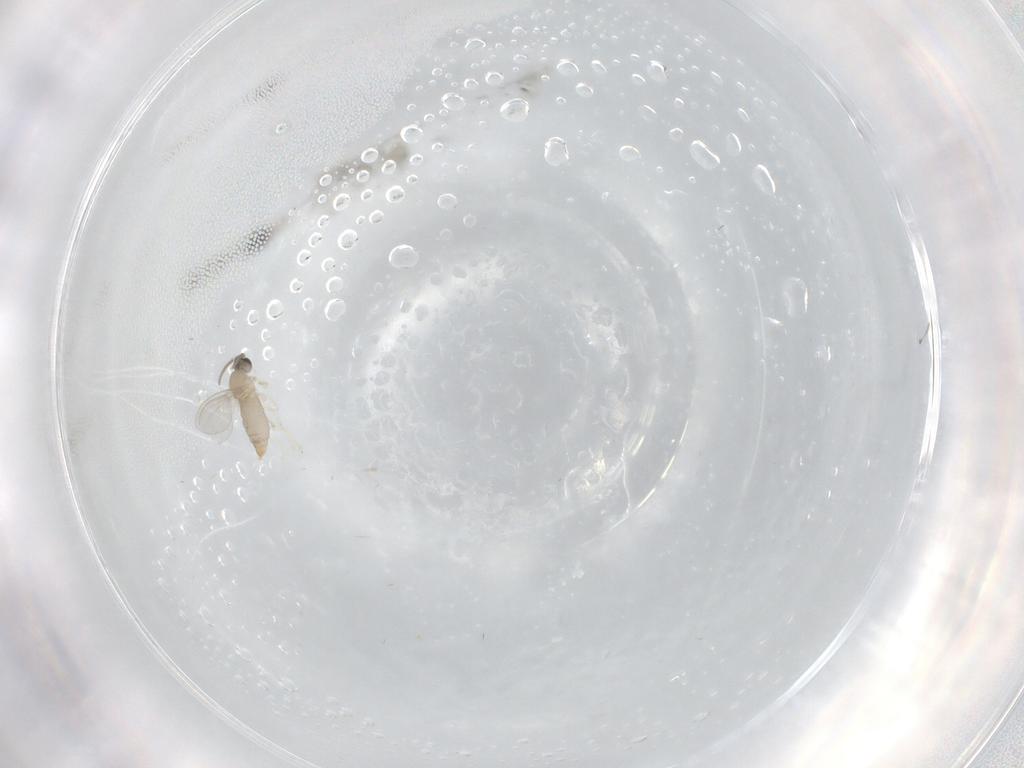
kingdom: Animalia
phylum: Arthropoda
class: Insecta
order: Diptera
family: Cecidomyiidae
